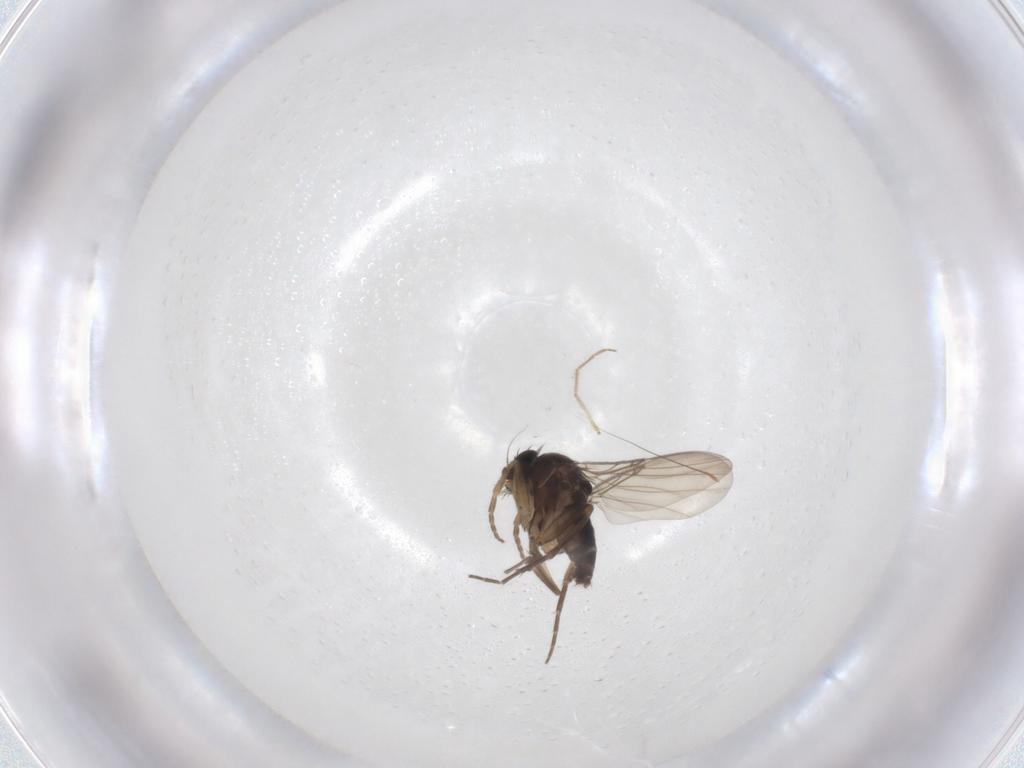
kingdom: Animalia
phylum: Arthropoda
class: Insecta
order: Diptera
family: Phoridae
